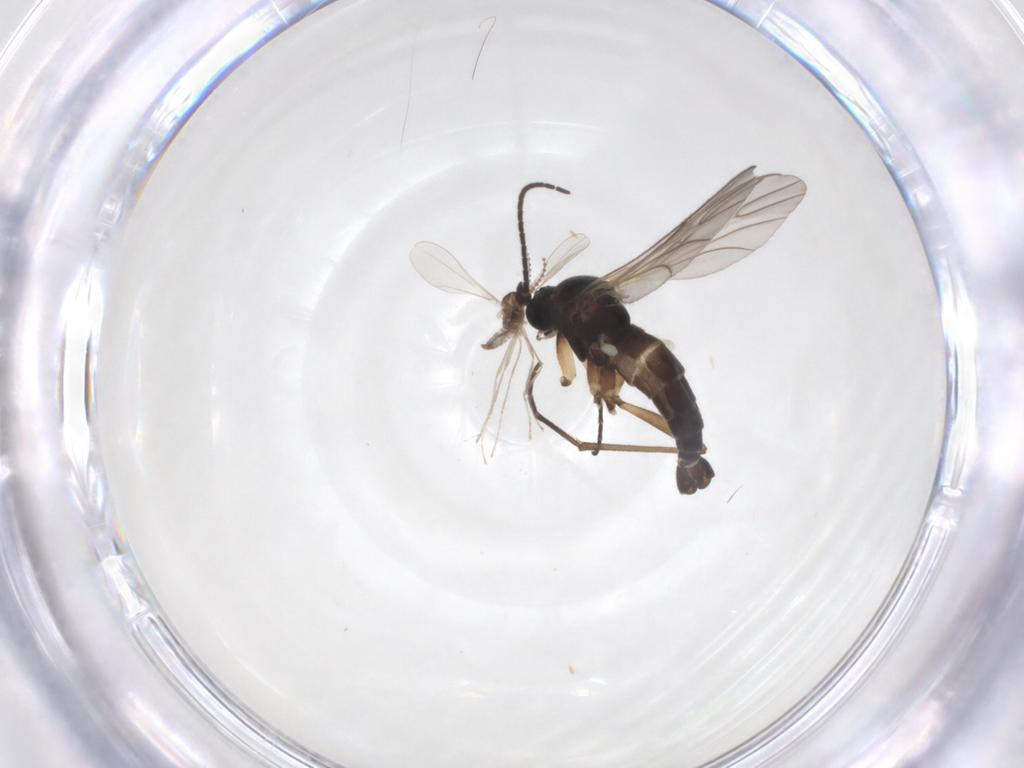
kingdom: Animalia
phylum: Arthropoda
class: Insecta
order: Diptera
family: Sciaridae
